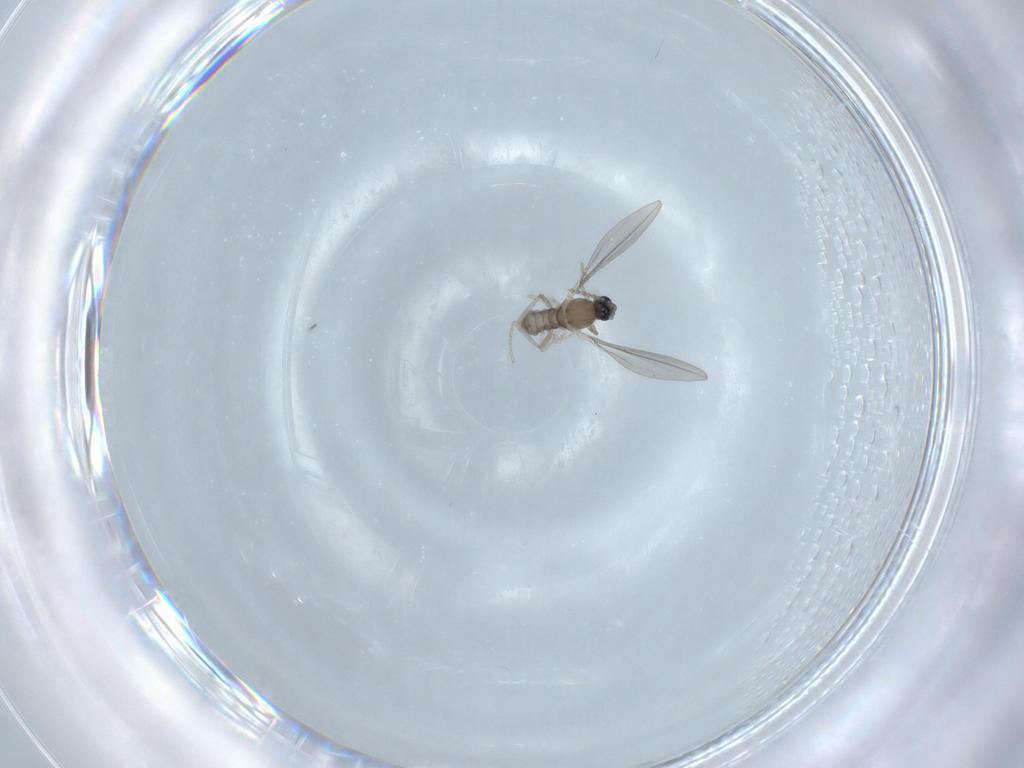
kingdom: Animalia
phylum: Arthropoda
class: Insecta
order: Diptera
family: Cecidomyiidae
